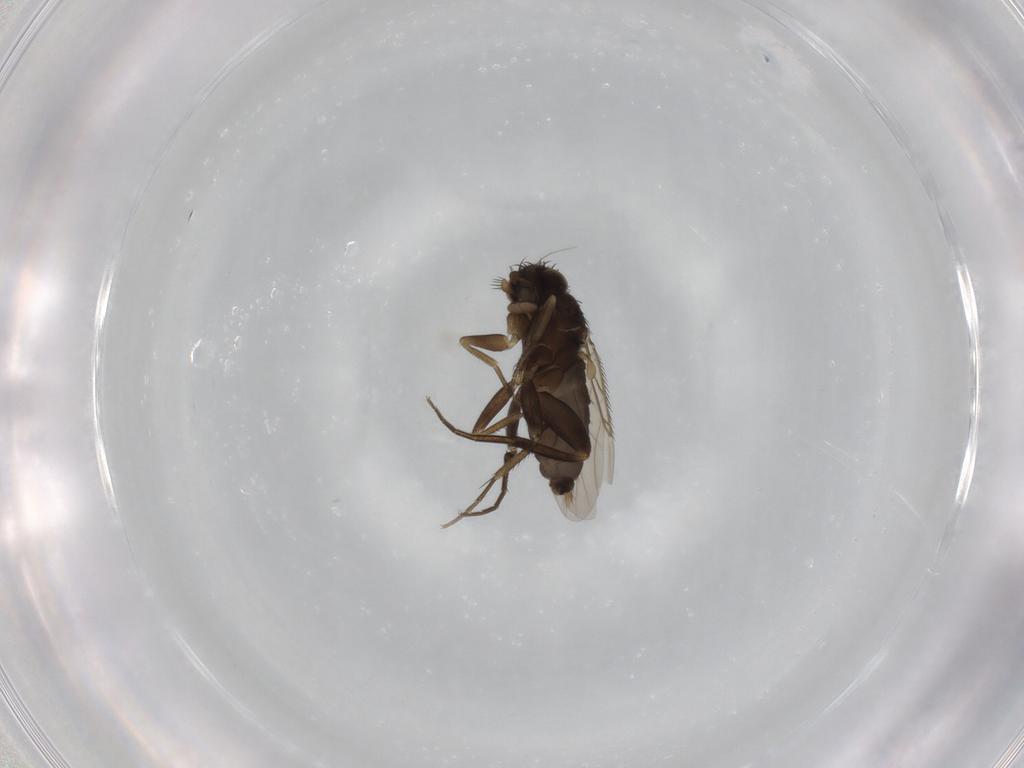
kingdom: Animalia
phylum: Arthropoda
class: Insecta
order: Diptera
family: Phoridae
